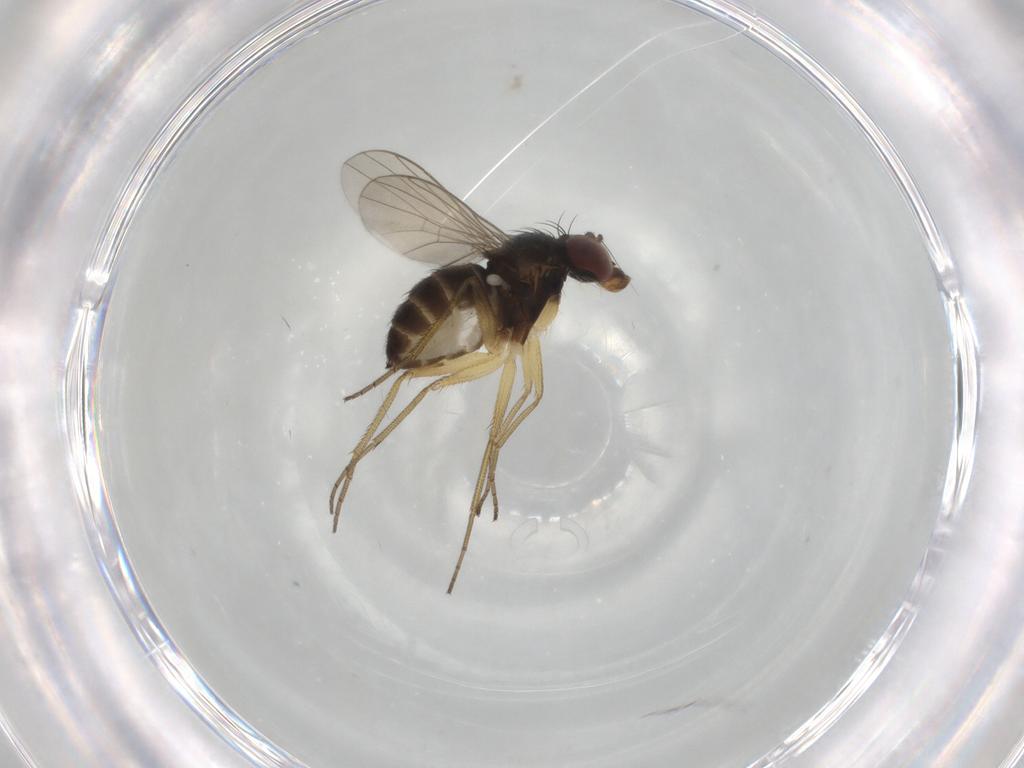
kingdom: Animalia
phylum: Arthropoda
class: Insecta
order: Diptera
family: Dolichopodidae
